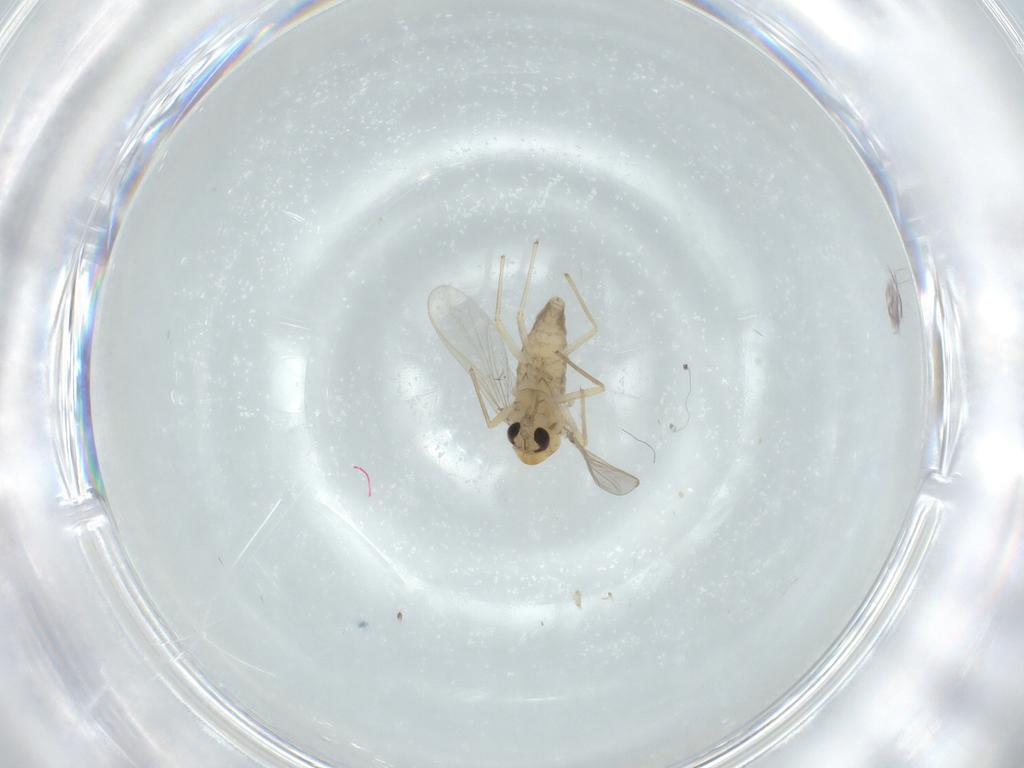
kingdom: Animalia
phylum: Arthropoda
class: Insecta
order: Diptera
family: Chironomidae
